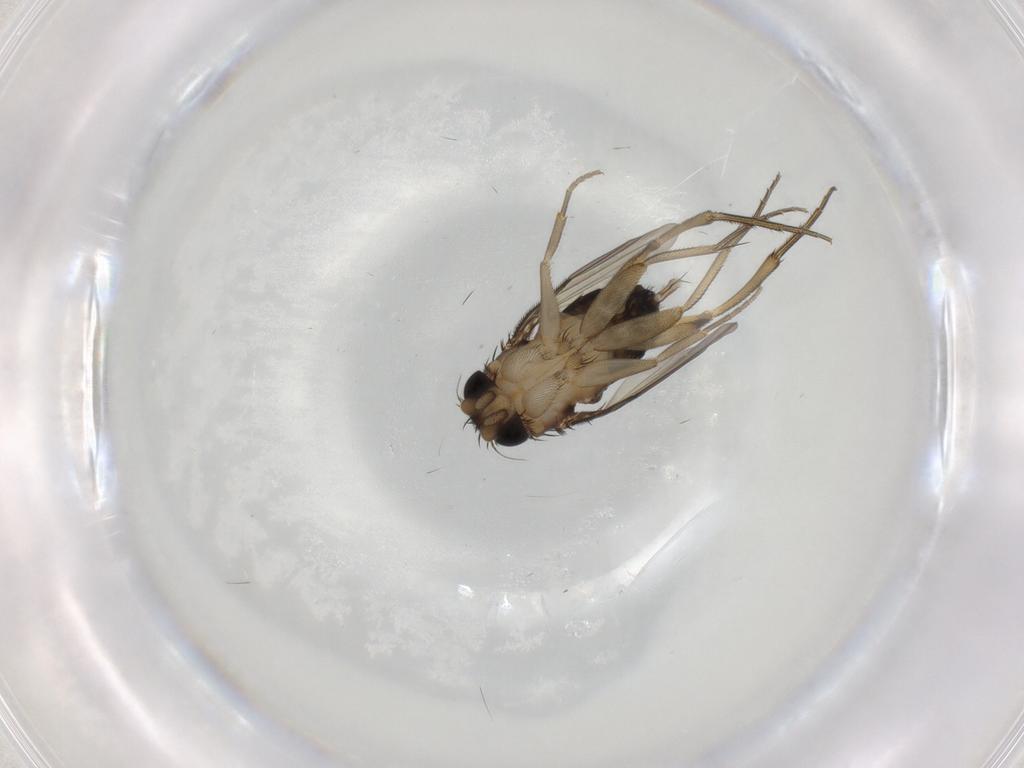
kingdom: Animalia
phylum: Arthropoda
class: Insecta
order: Diptera
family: Phoridae
